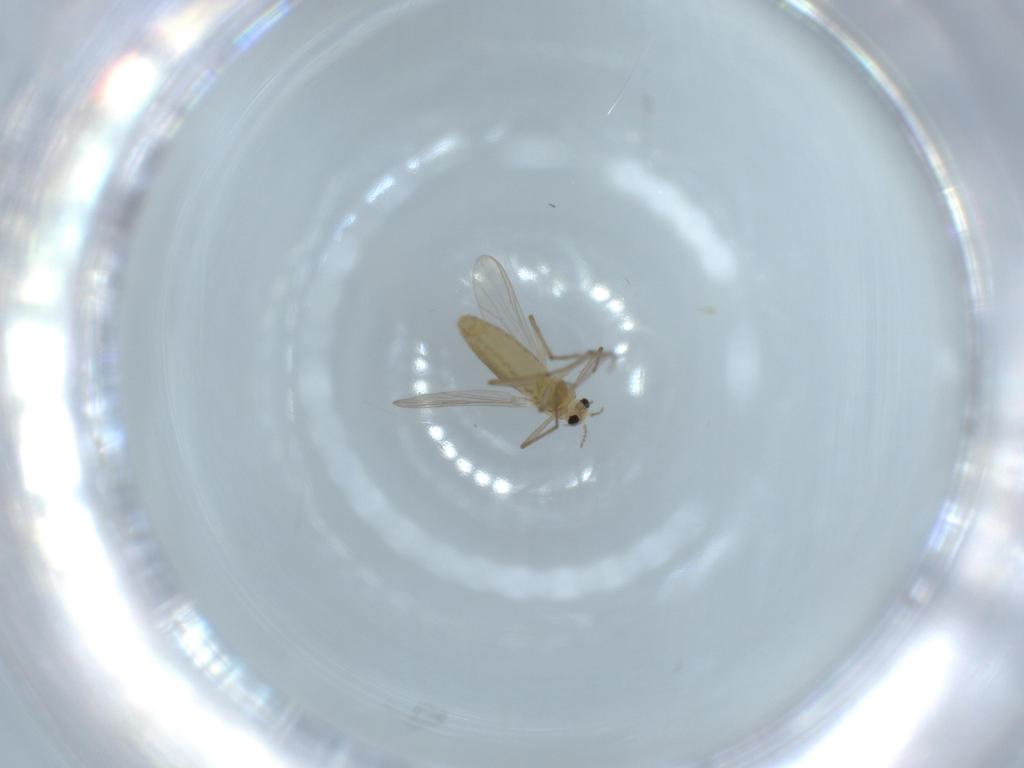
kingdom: Animalia
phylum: Arthropoda
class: Insecta
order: Diptera
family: Chironomidae
